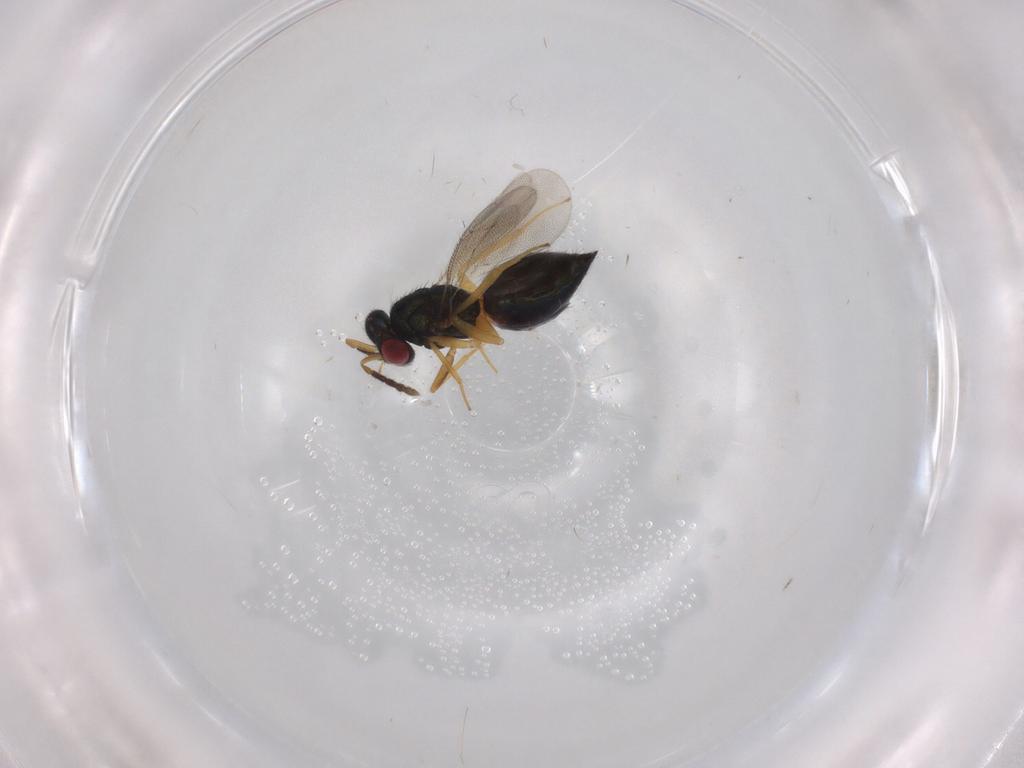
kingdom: Animalia
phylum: Arthropoda
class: Insecta
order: Hymenoptera
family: Eulophidae
